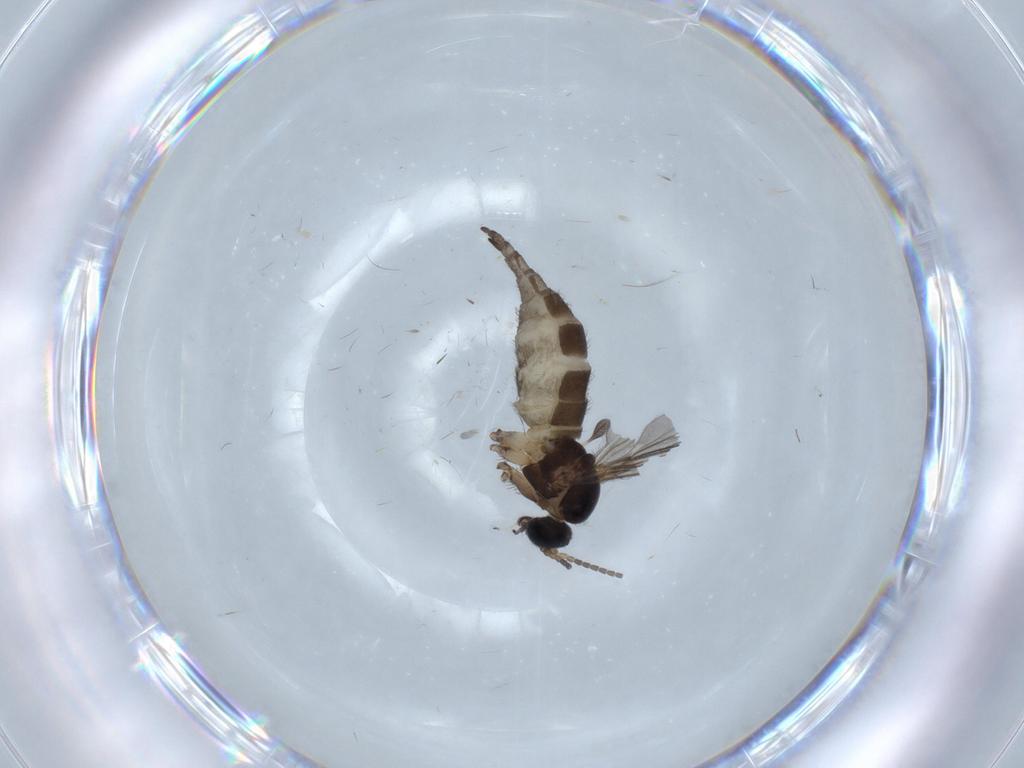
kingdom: Animalia
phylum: Arthropoda
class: Insecta
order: Diptera
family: Sciaridae
